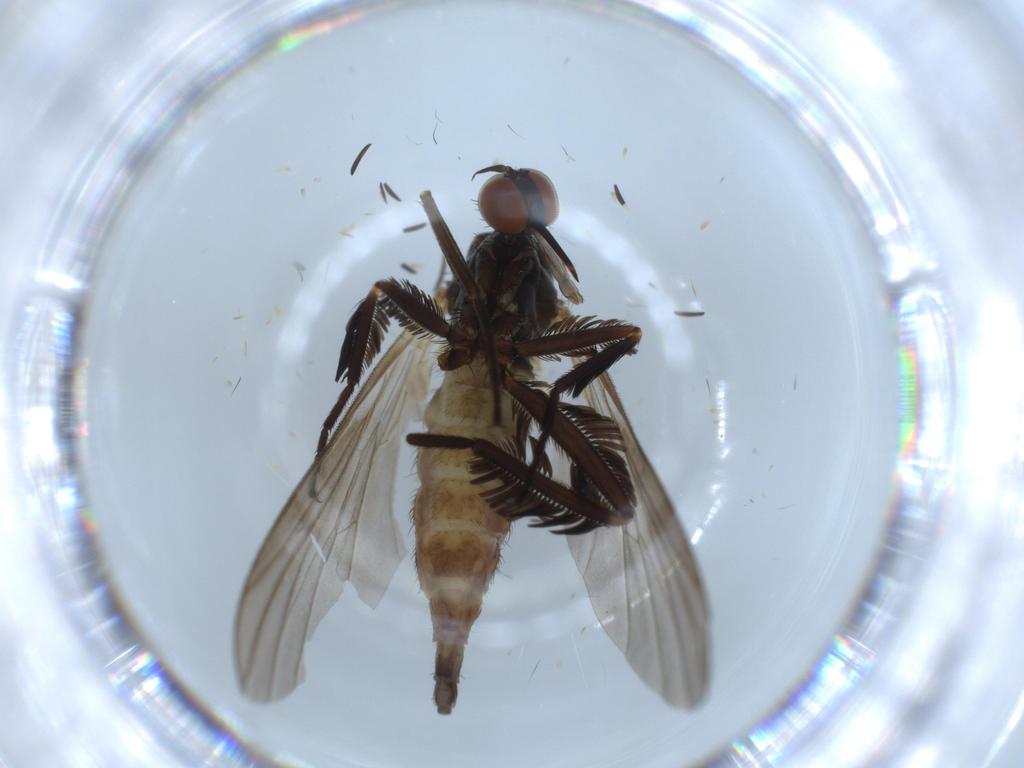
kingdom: Animalia
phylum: Arthropoda
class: Insecta
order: Diptera
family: Empididae
